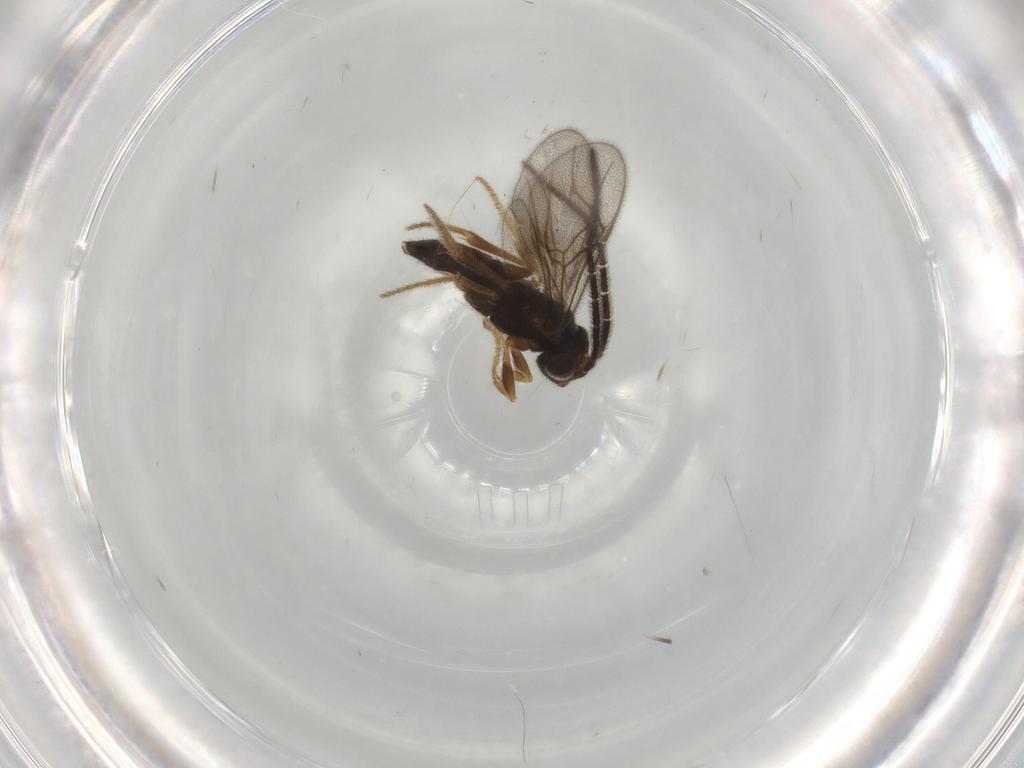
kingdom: Animalia
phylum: Arthropoda
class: Insecta
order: Hymenoptera
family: Dryinidae
